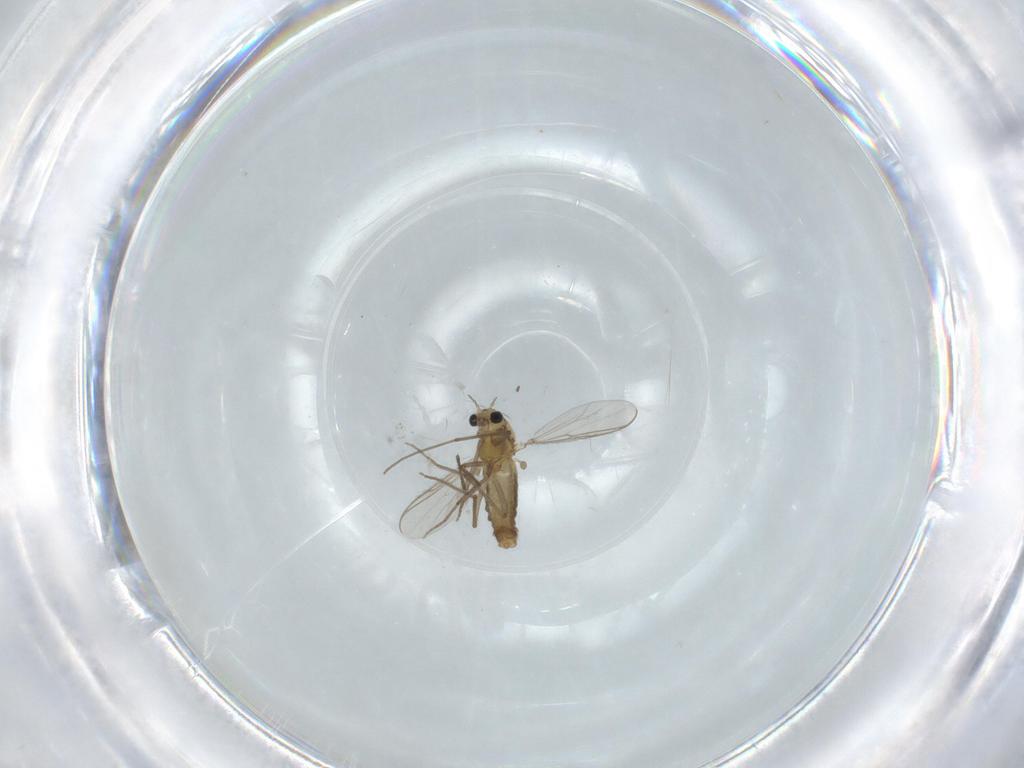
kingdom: Animalia
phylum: Arthropoda
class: Insecta
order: Diptera
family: Chironomidae
